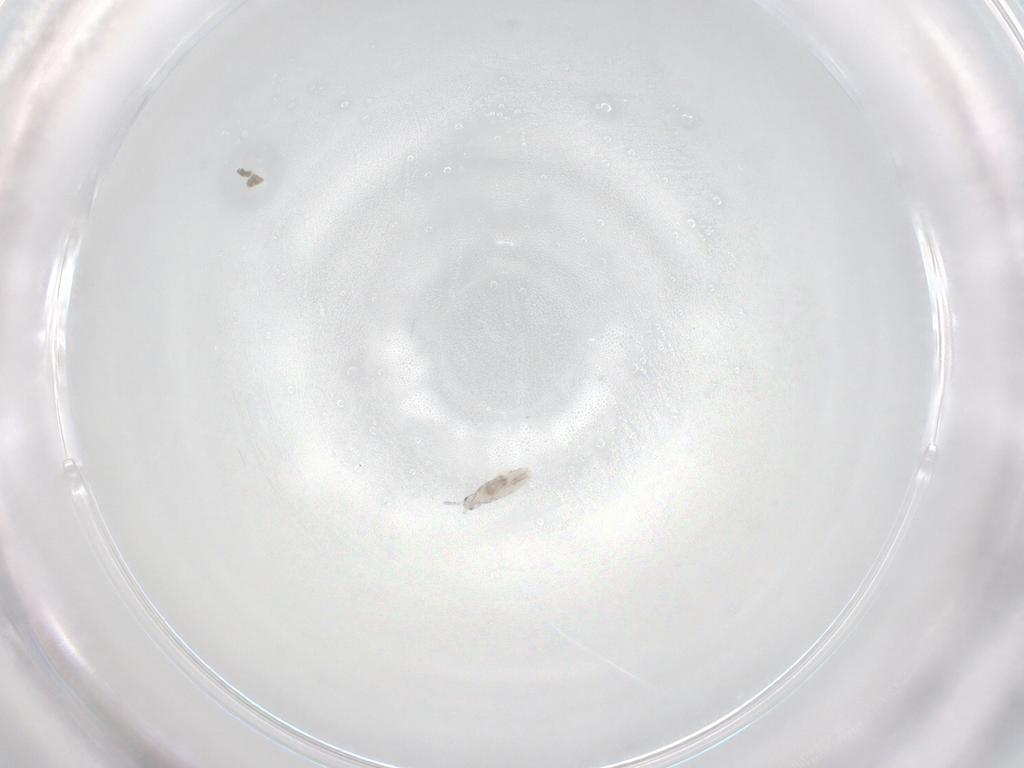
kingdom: Animalia
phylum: Arthropoda
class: Collembola
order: Entomobryomorpha
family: Entomobryidae
